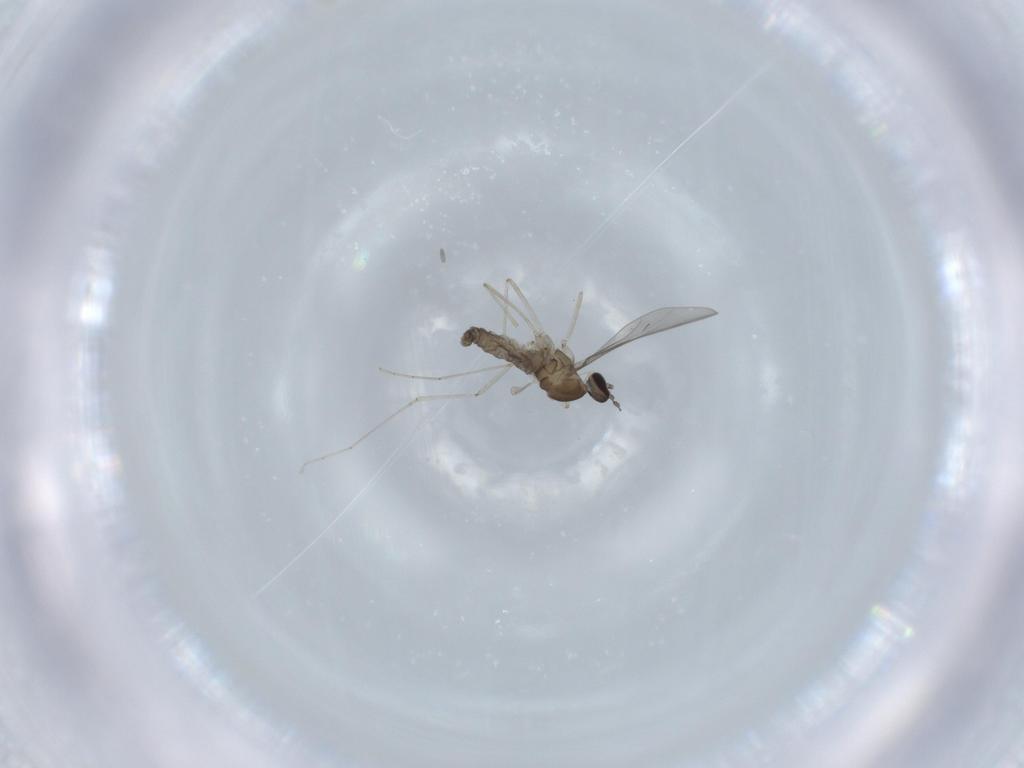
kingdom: Animalia
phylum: Arthropoda
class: Insecta
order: Diptera
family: Cecidomyiidae
